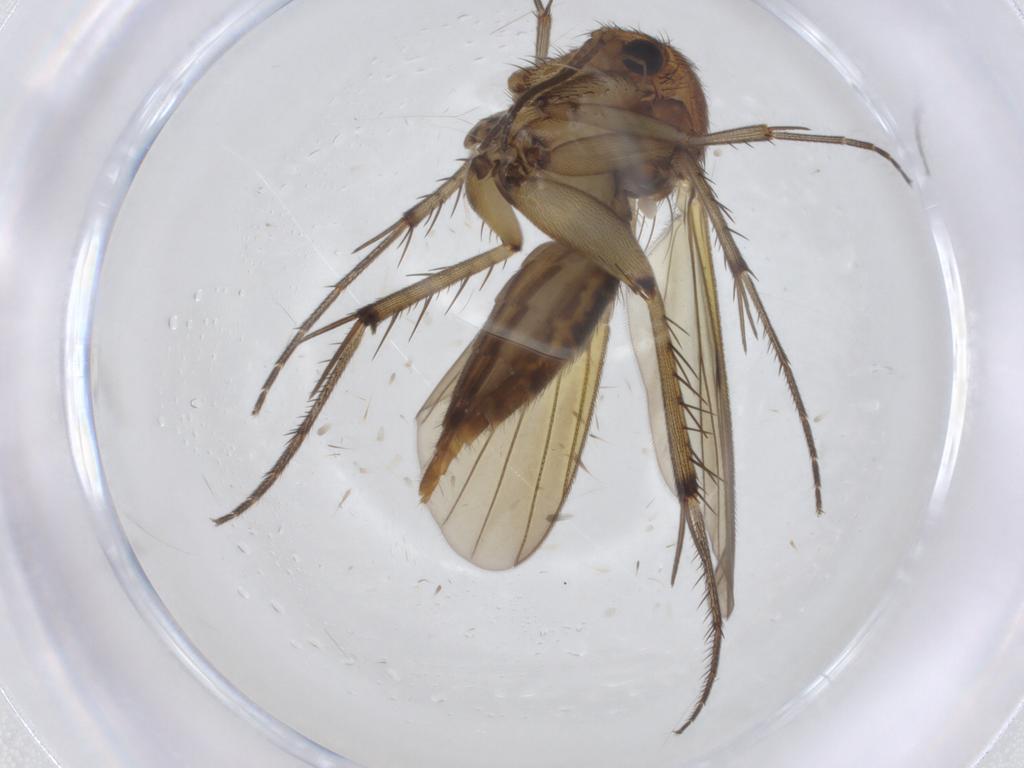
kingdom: Animalia
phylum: Arthropoda
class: Insecta
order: Diptera
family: Mycetophilidae
